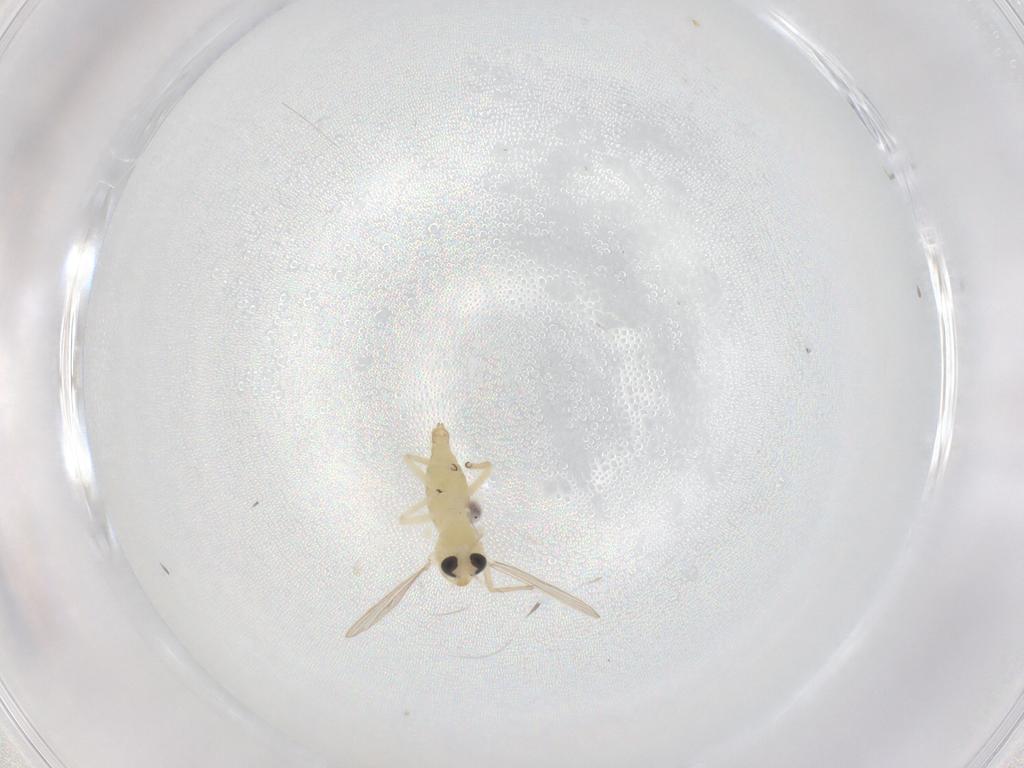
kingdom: Animalia
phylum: Arthropoda
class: Insecta
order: Diptera
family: Chironomidae
